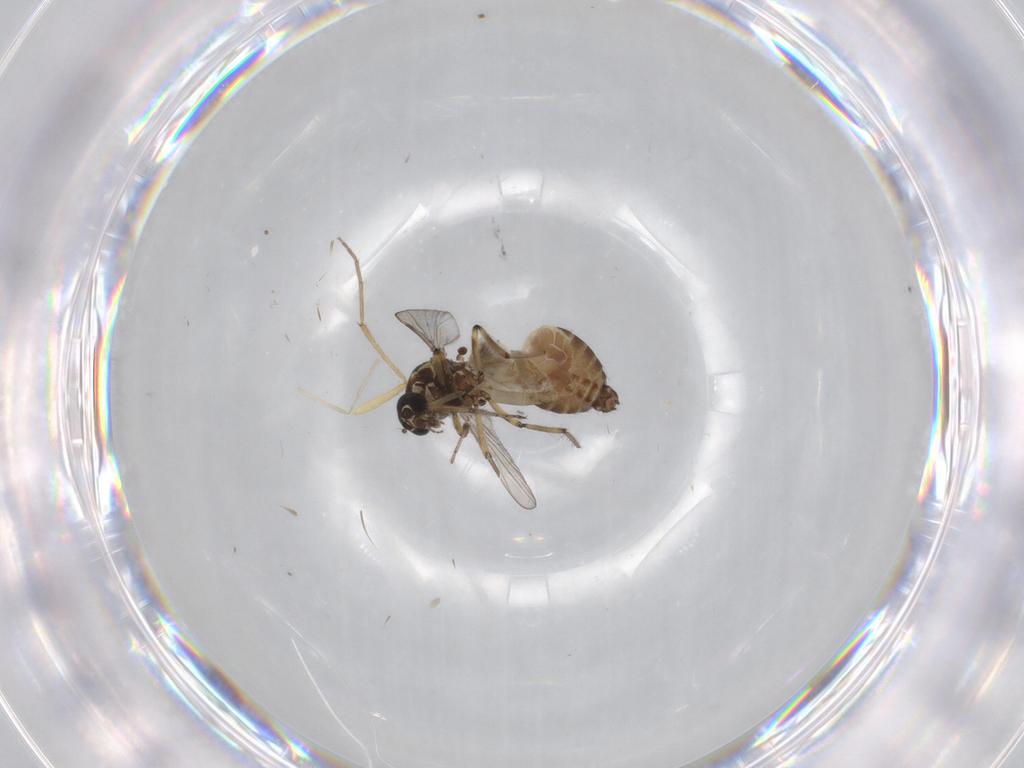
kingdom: Animalia
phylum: Arthropoda
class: Insecta
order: Diptera
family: Chironomidae
